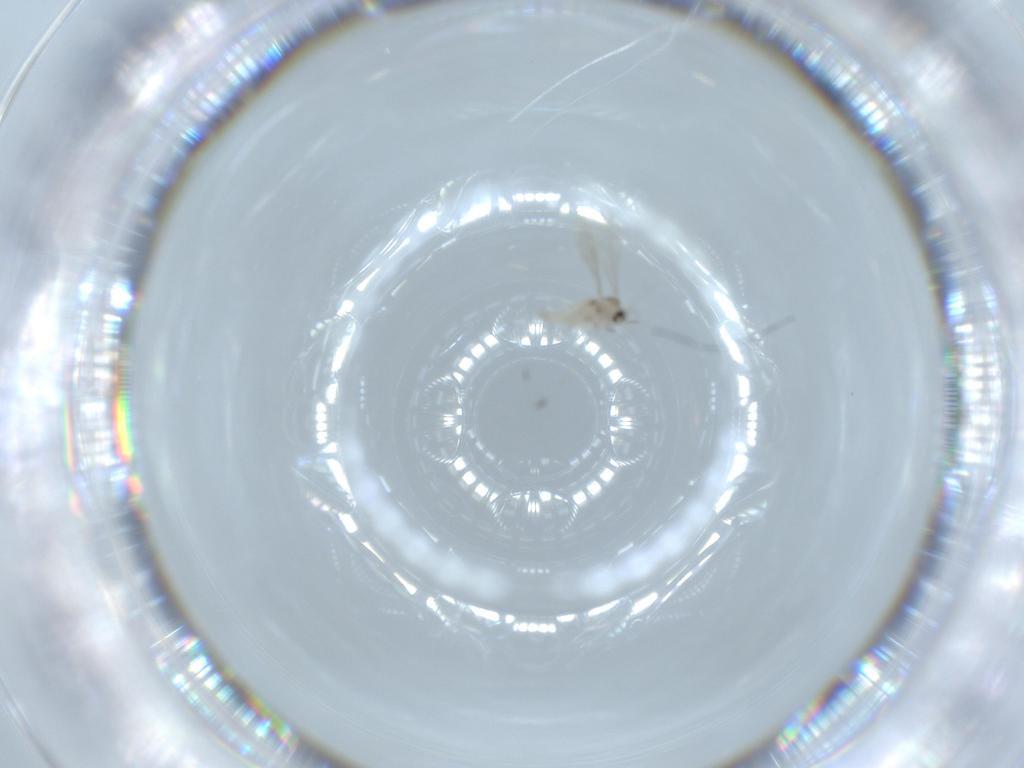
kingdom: Animalia
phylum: Arthropoda
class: Insecta
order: Diptera
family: Cecidomyiidae
